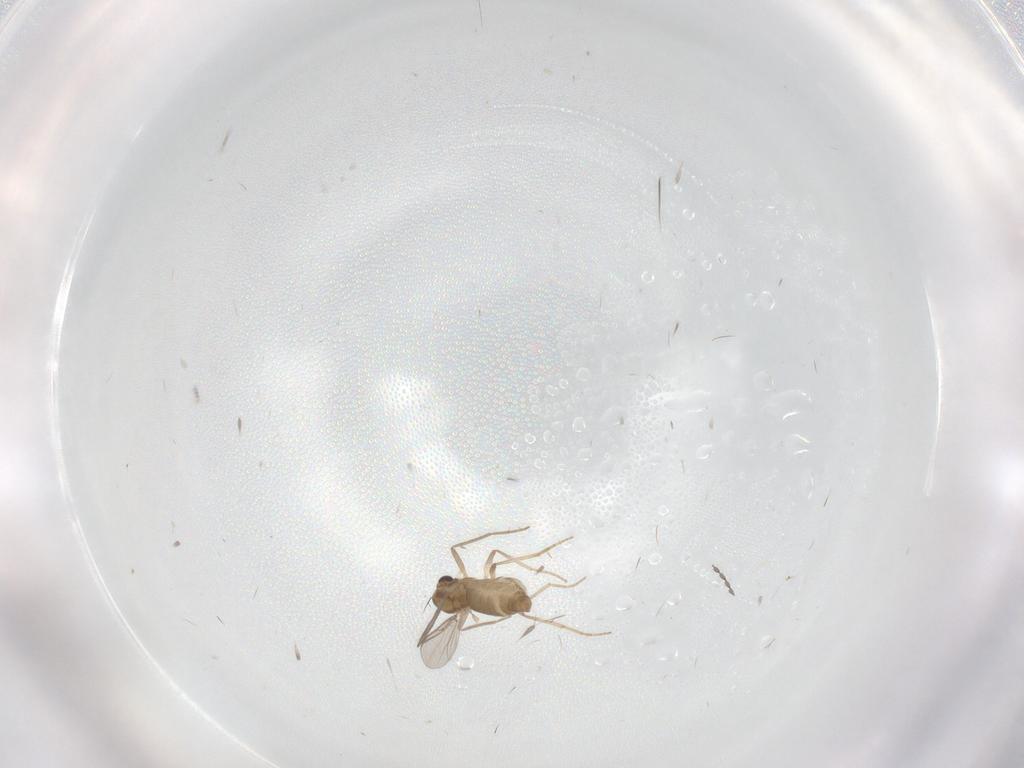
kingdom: Animalia
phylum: Arthropoda
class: Insecta
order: Diptera
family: Chironomidae
